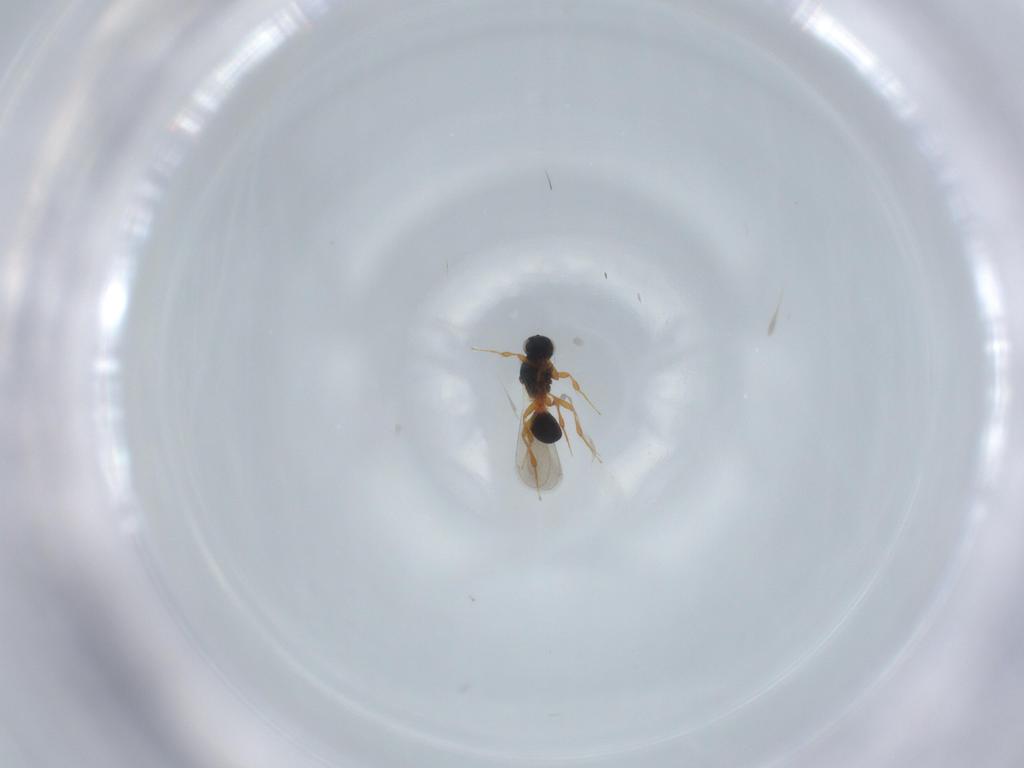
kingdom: Animalia
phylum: Arthropoda
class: Insecta
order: Hymenoptera
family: Platygastridae
